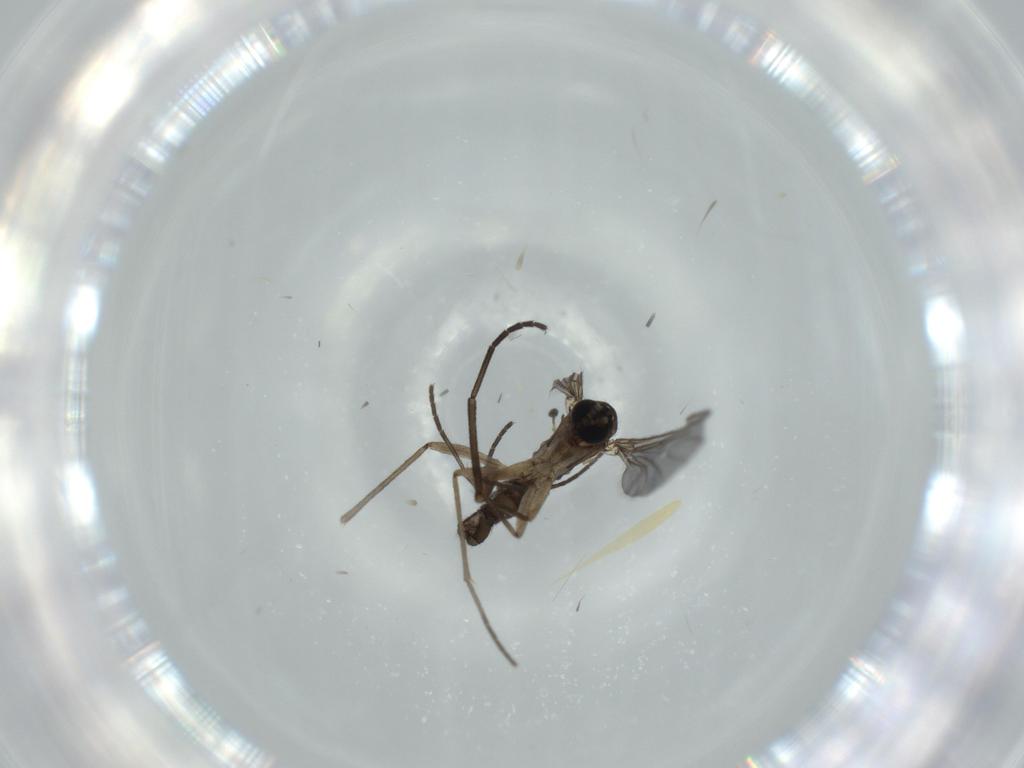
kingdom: Animalia
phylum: Arthropoda
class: Insecta
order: Diptera
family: Sciaridae
